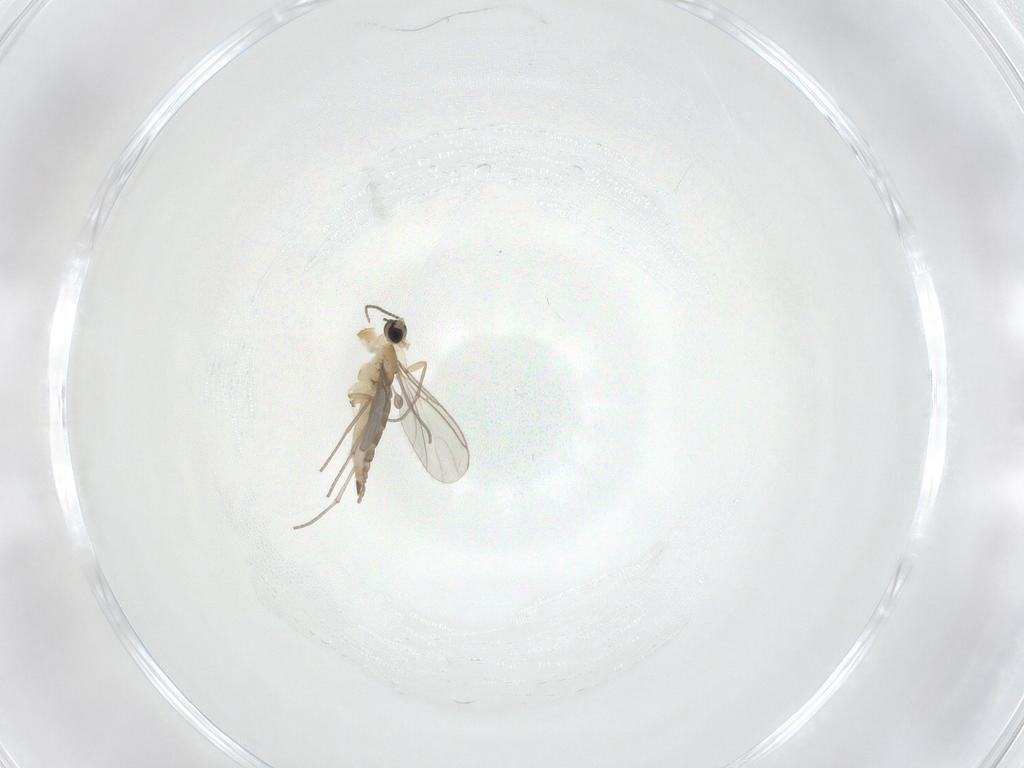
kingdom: Animalia
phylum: Arthropoda
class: Insecta
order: Diptera
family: Sciaridae
